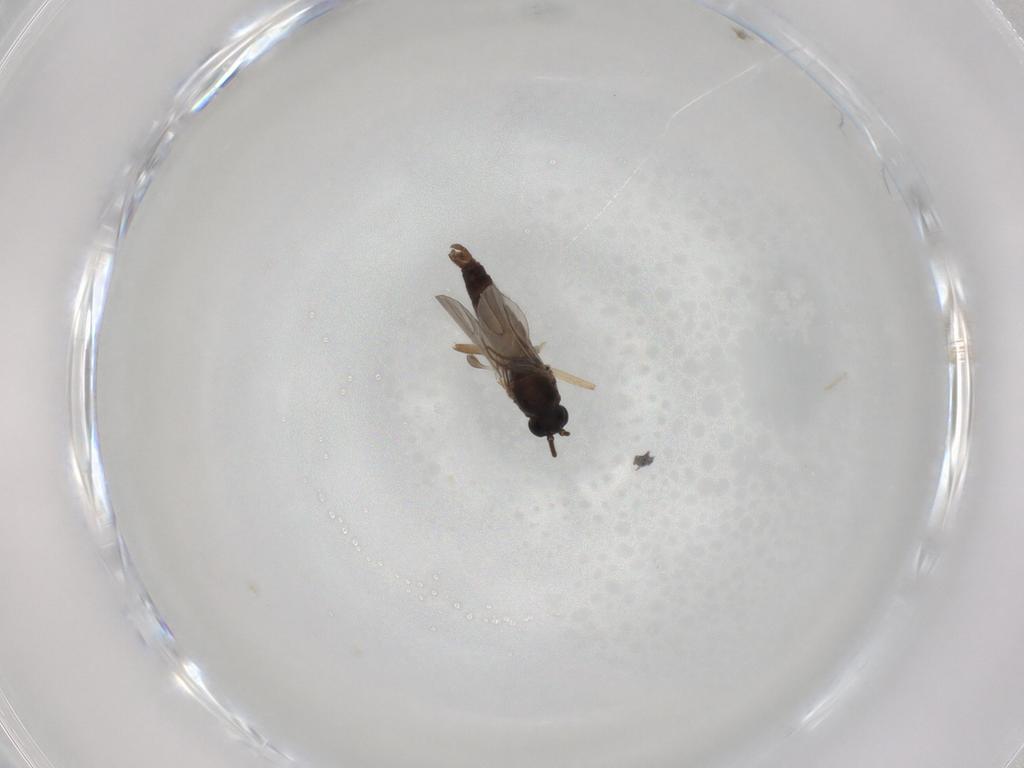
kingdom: Animalia
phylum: Arthropoda
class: Insecta
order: Diptera
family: Sciaridae
